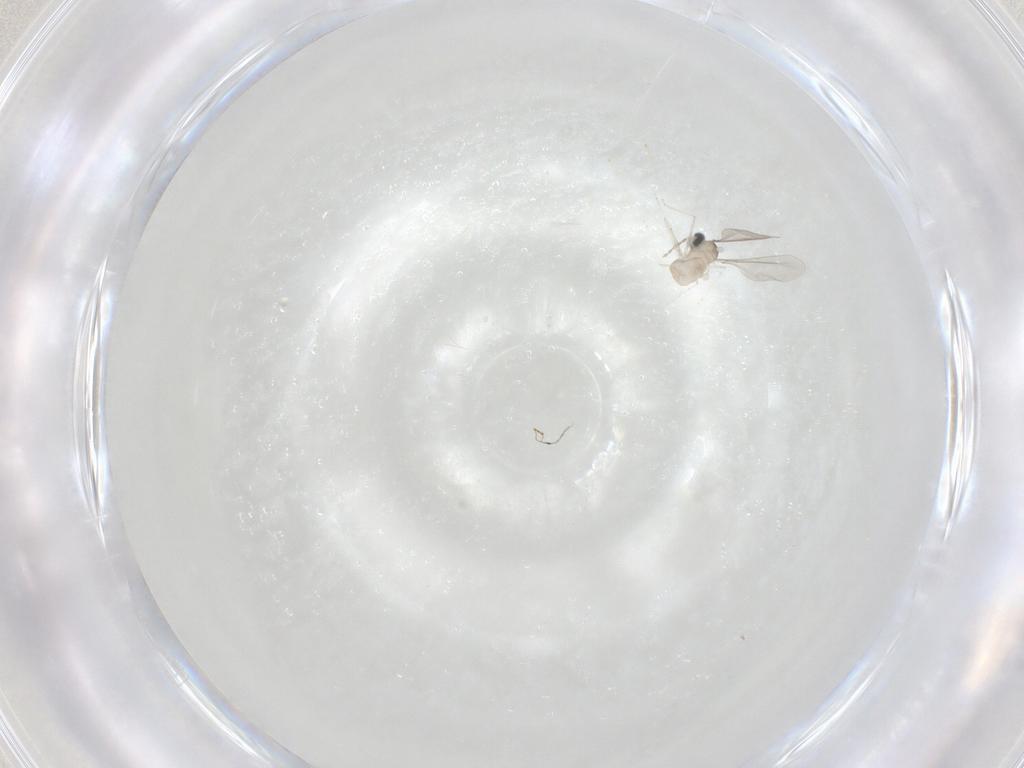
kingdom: Animalia
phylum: Arthropoda
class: Insecta
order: Diptera
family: Cecidomyiidae
